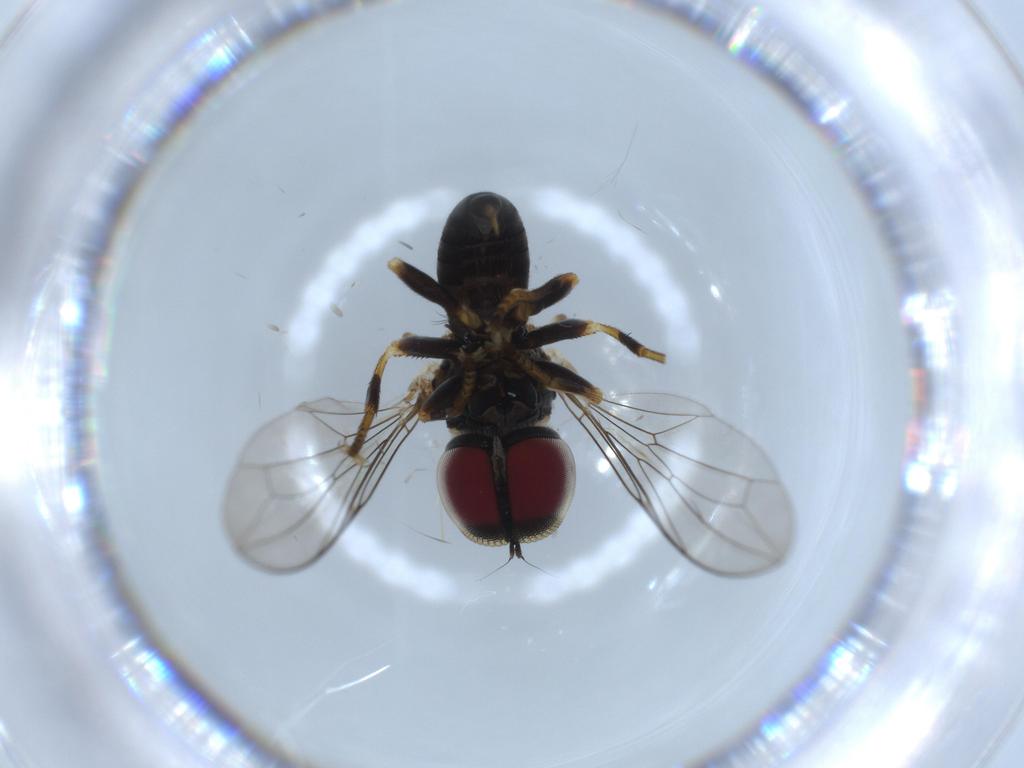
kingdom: Animalia
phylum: Arthropoda
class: Insecta
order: Diptera
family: Pipunculidae
